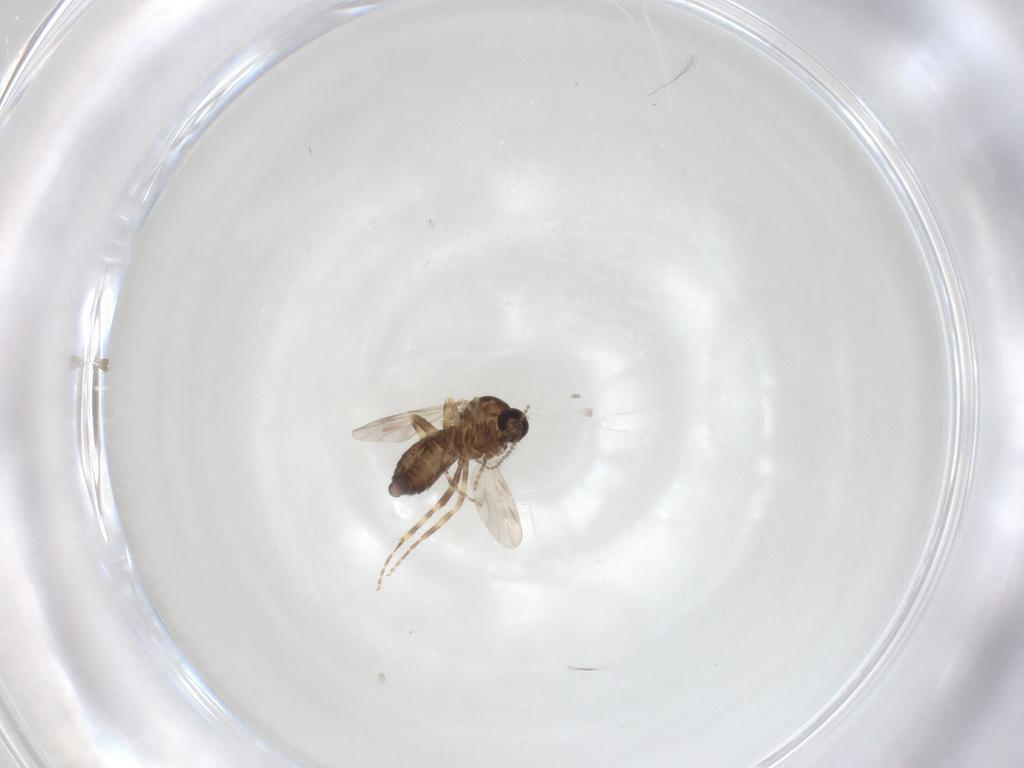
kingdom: Animalia
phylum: Arthropoda
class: Insecta
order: Diptera
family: Ceratopogonidae
